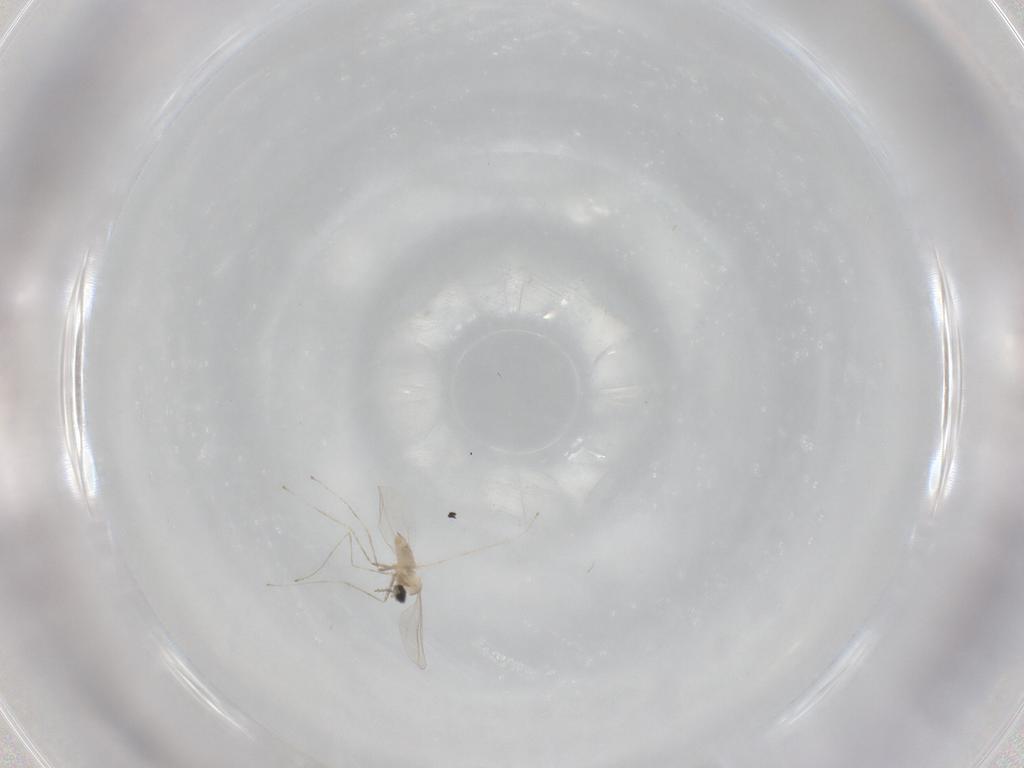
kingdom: Animalia
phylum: Arthropoda
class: Insecta
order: Diptera
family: Cecidomyiidae
